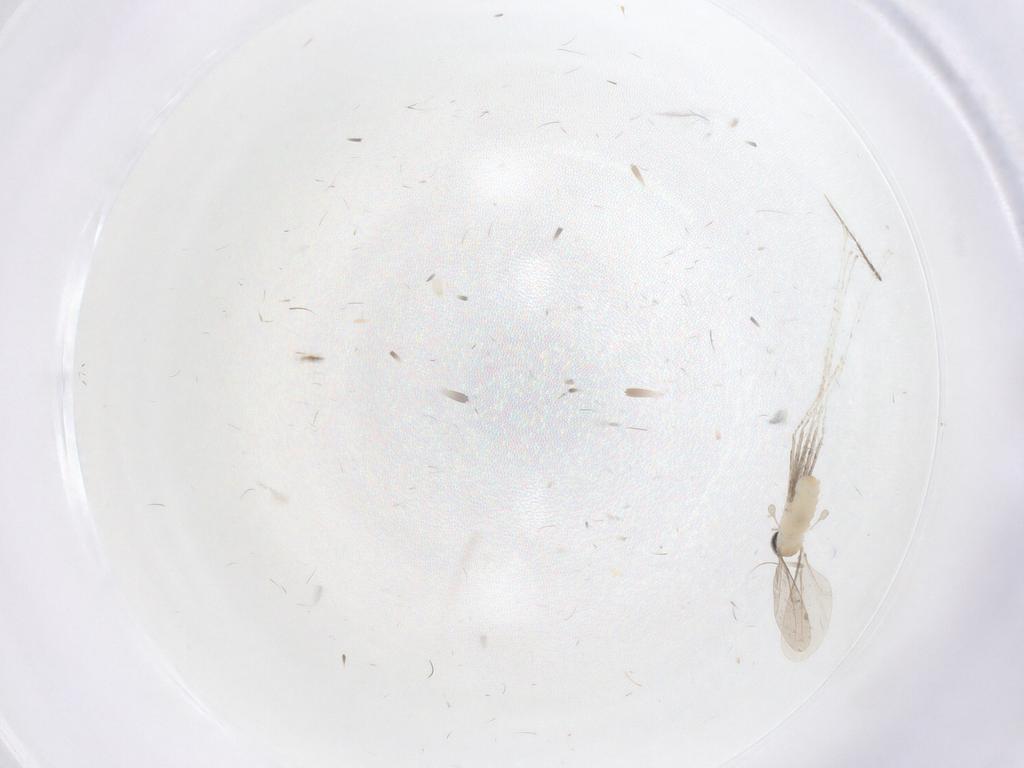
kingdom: Animalia
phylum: Arthropoda
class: Insecta
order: Diptera
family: Cecidomyiidae
